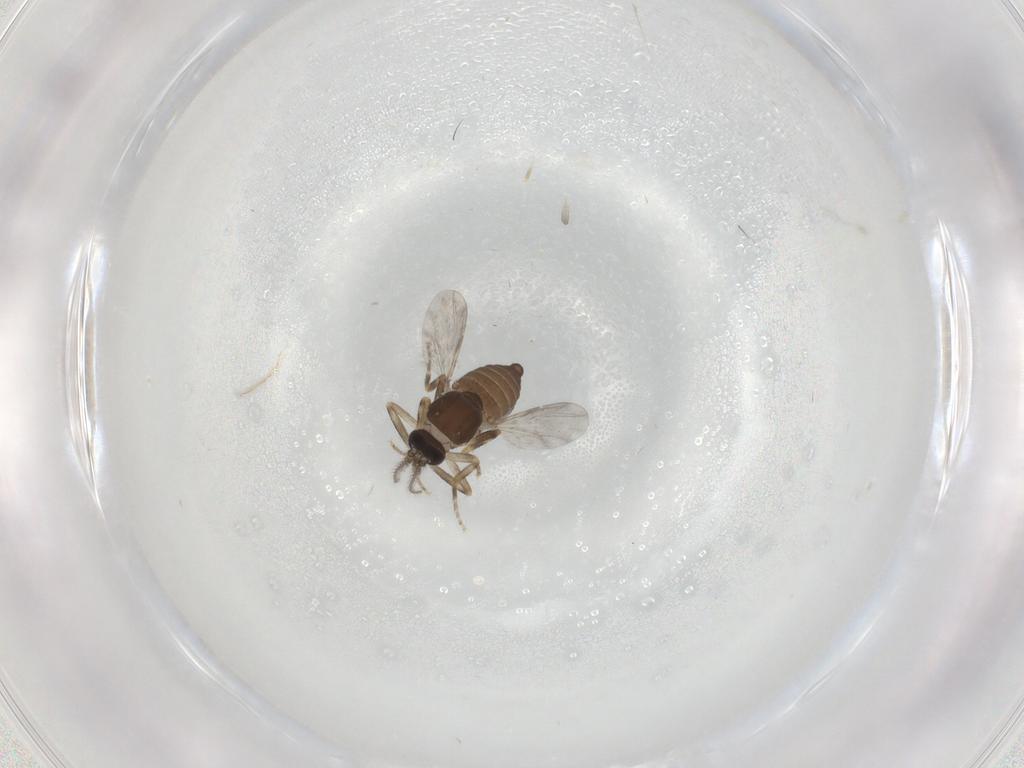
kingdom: Animalia
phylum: Arthropoda
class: Insecta
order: Diptera
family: Ceratopogonidae
